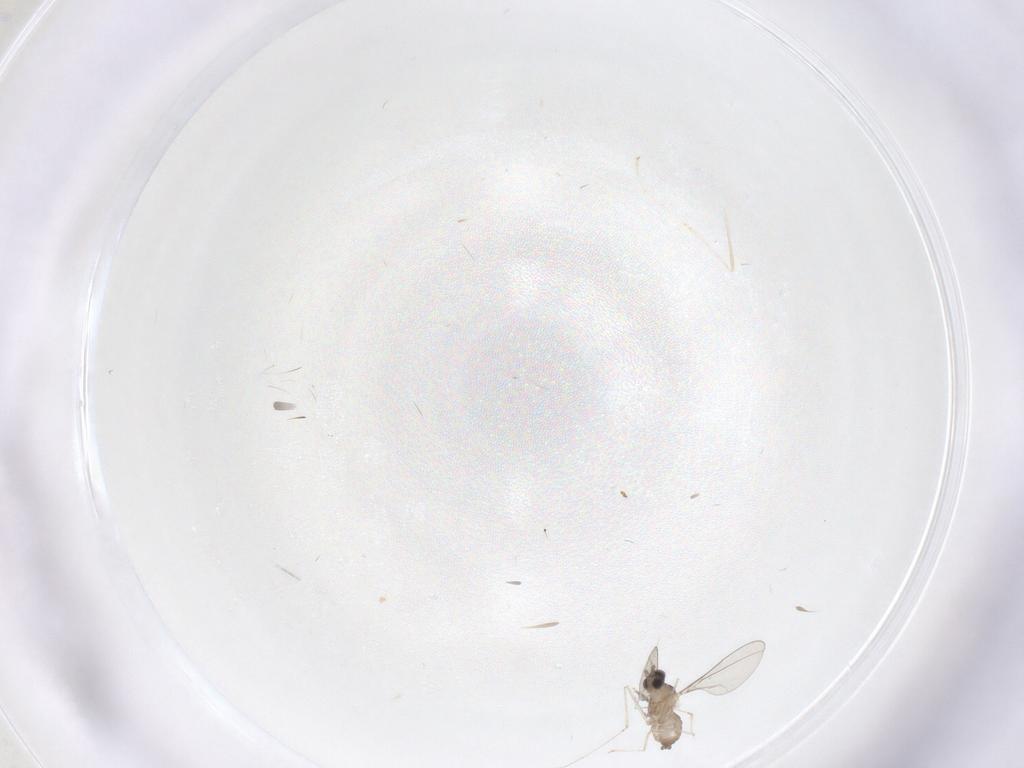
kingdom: Animalia
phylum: Arthropoda
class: Insecta
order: Diptera
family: Cecidomyiidae
